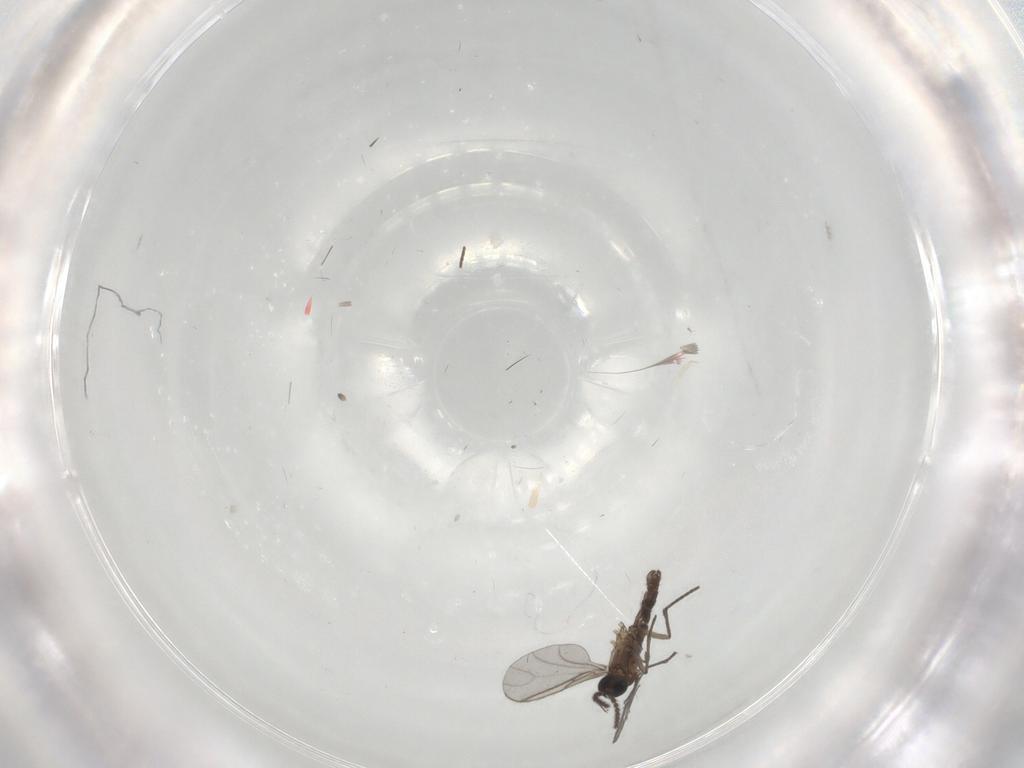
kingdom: Animalia
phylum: Arthropoda
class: Insecta
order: Diptera
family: Sciaridae
